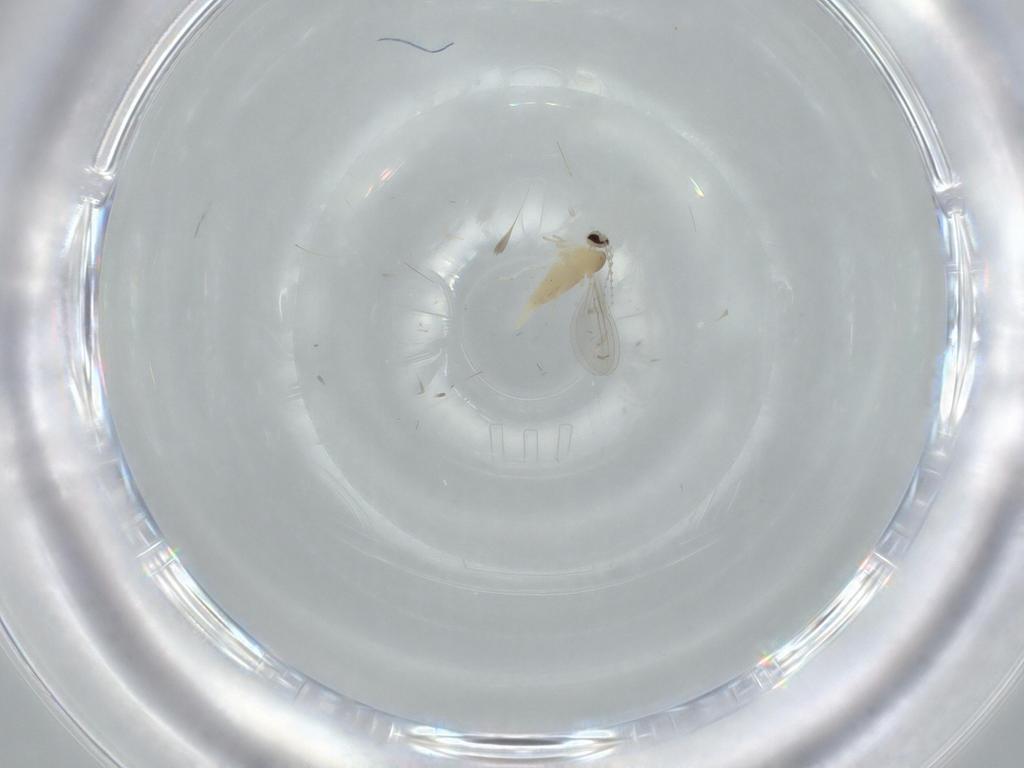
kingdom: Animalia
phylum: Arthropoda
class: Insecta
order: Diptera
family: Cecidomyiidae
